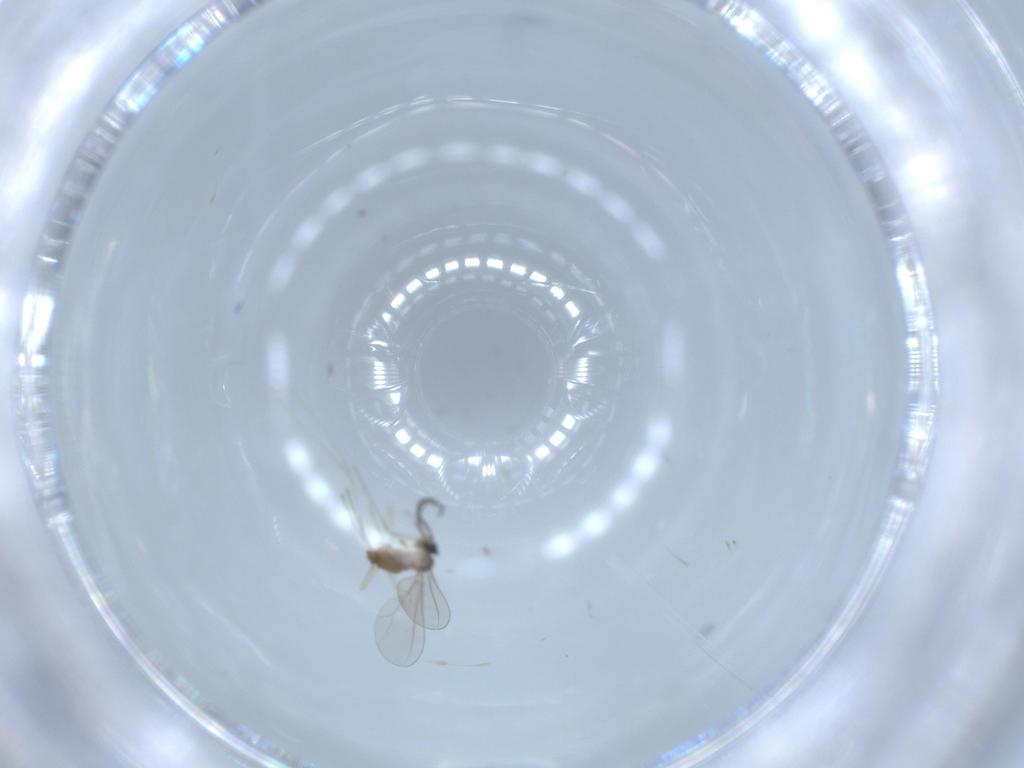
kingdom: Animalia
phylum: Arthropoda
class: Insecta
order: Diptera
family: Cecidomyiidae
